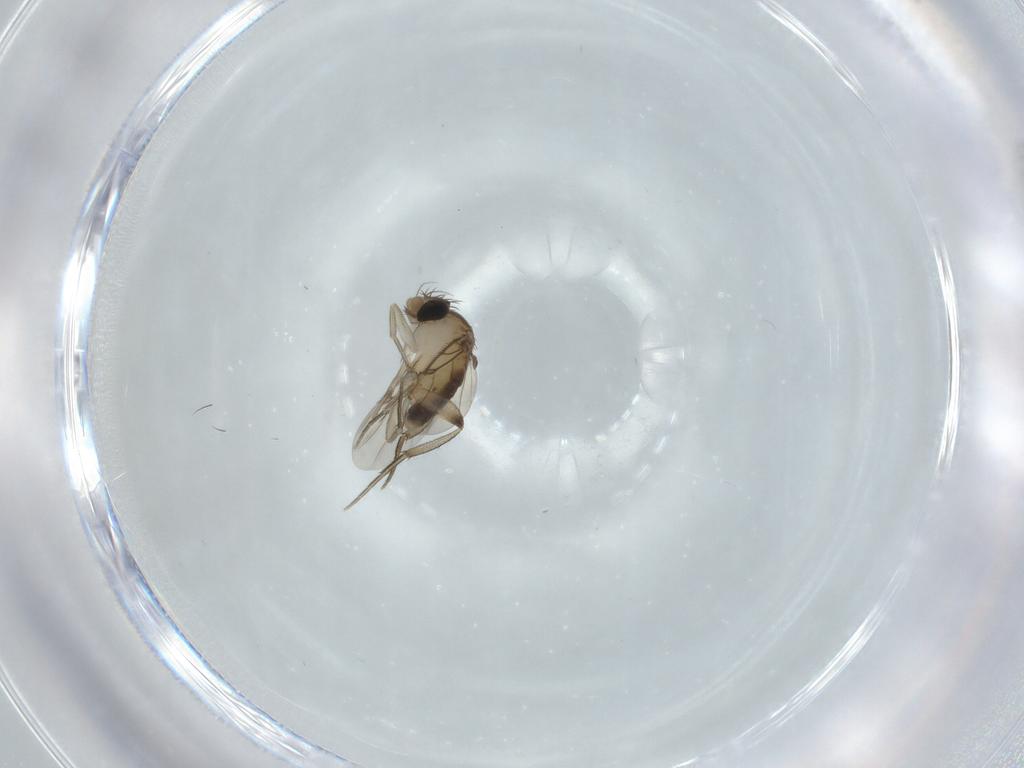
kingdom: Animalia
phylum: Arthropoda
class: Insecta
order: Diptera
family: Phoridae
